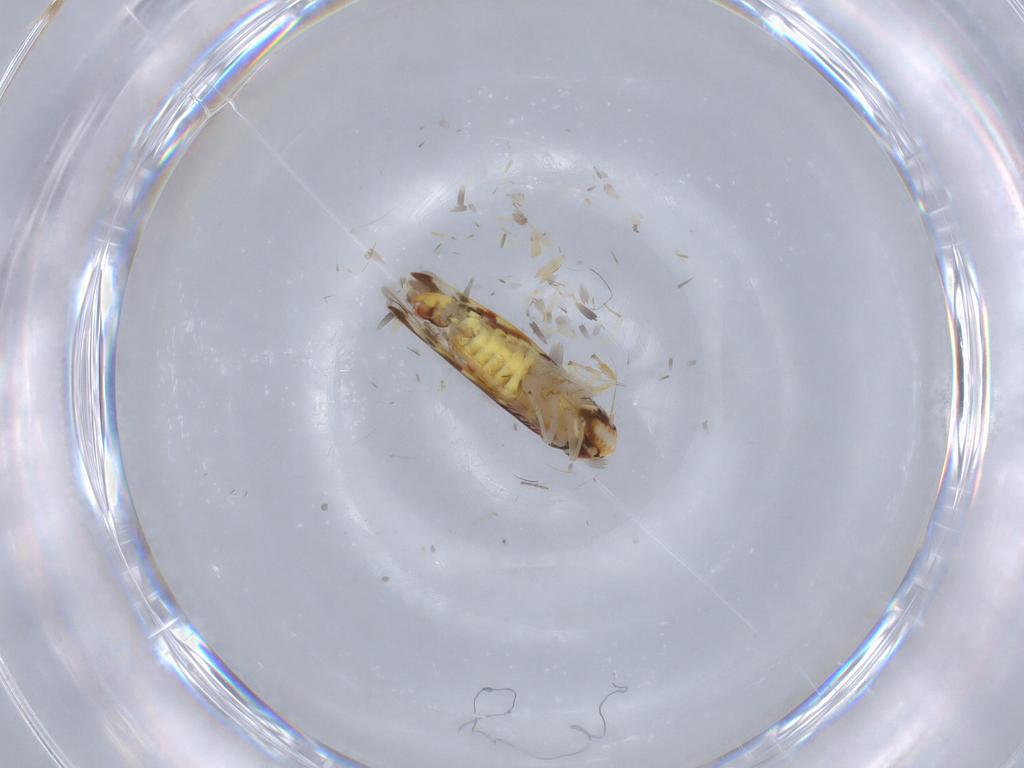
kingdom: Animalia
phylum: Arthropoda
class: Insecta
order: Hemiptera
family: Cicadellidae
